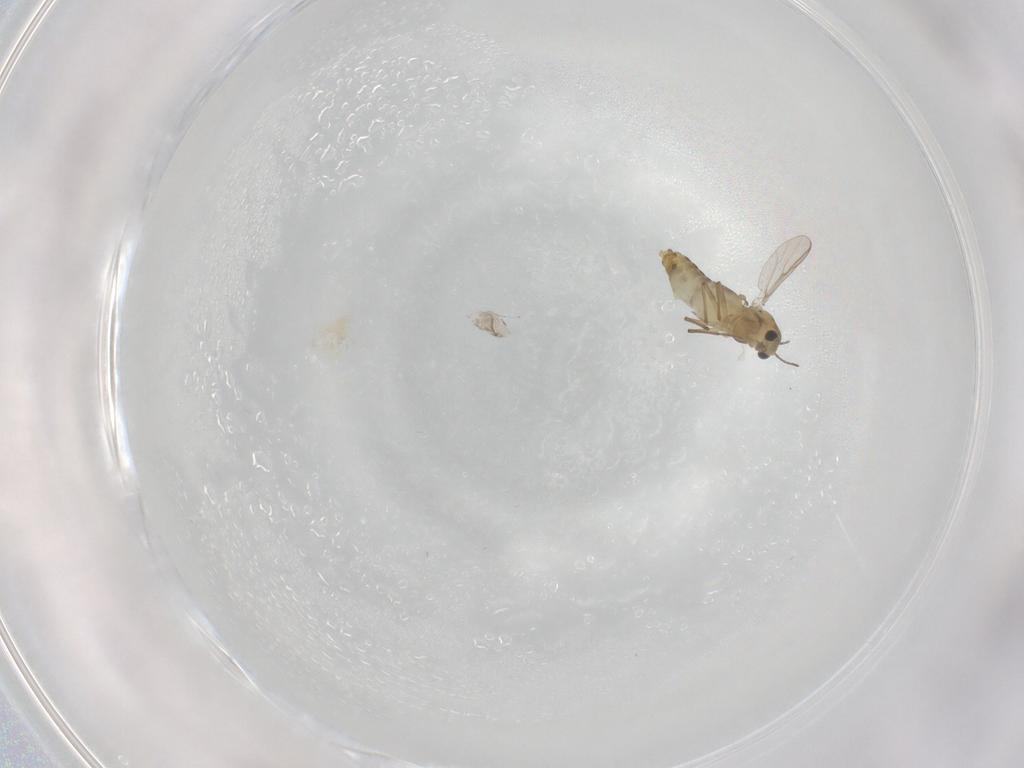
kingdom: Animalia
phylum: Arthropoda
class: Insecta
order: Diptera
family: Chironomidae
